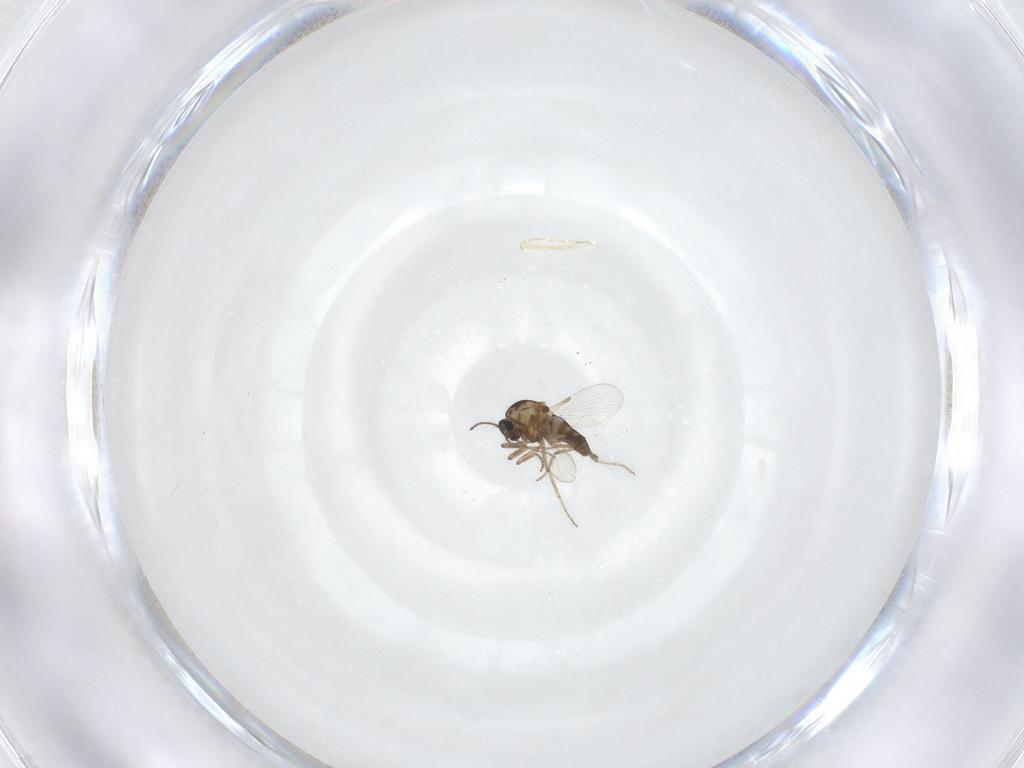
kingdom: Animalia
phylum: Arthropoda
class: Insecta
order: Diptera
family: Ceratopogonidae
